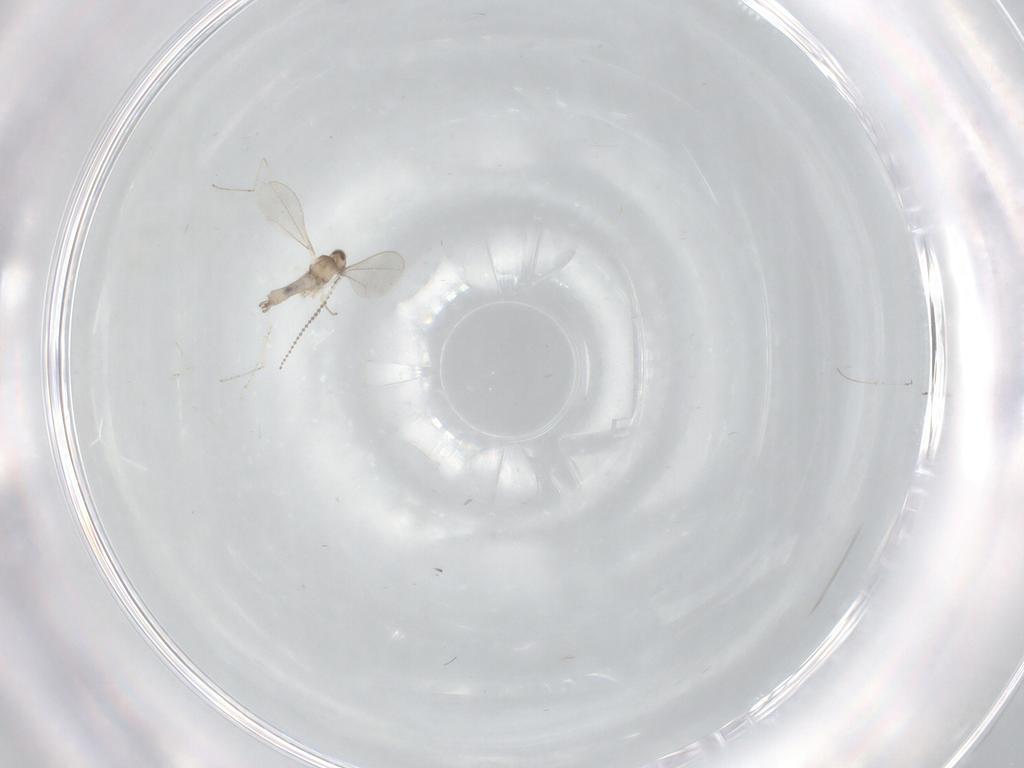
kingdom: Animalia
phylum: Arthropoda
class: Insecta
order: Diptera
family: Cecidomyiidae
